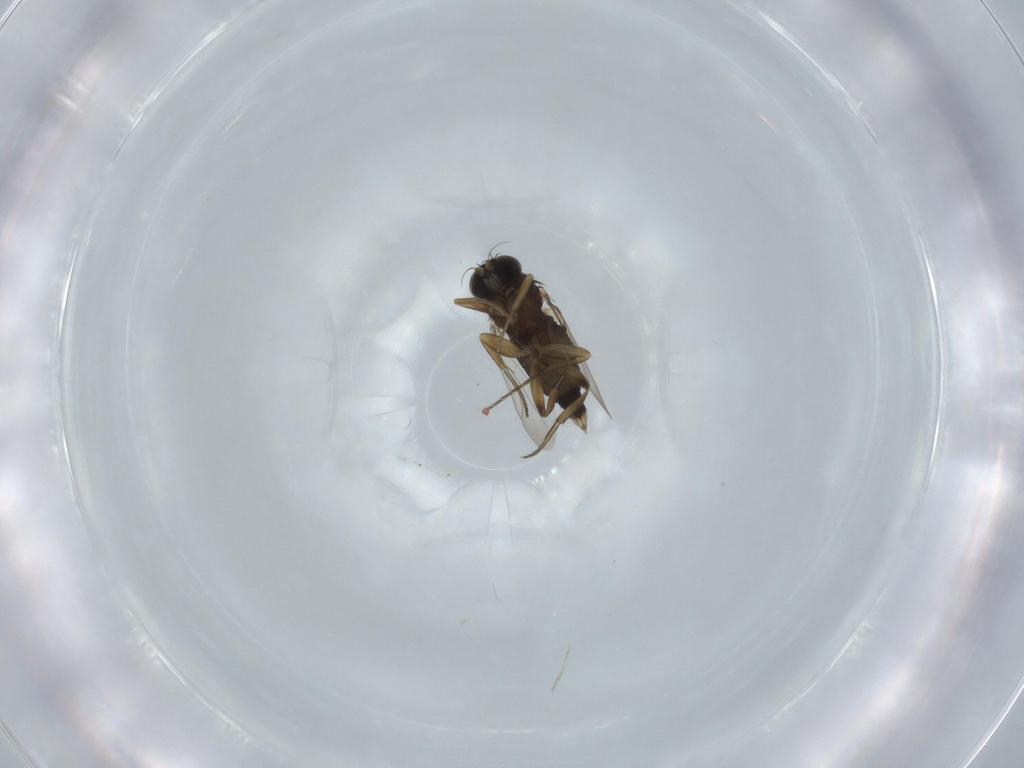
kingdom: Animalia
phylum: Arthropoda
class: Insecta
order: Diptera
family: Phoridae
